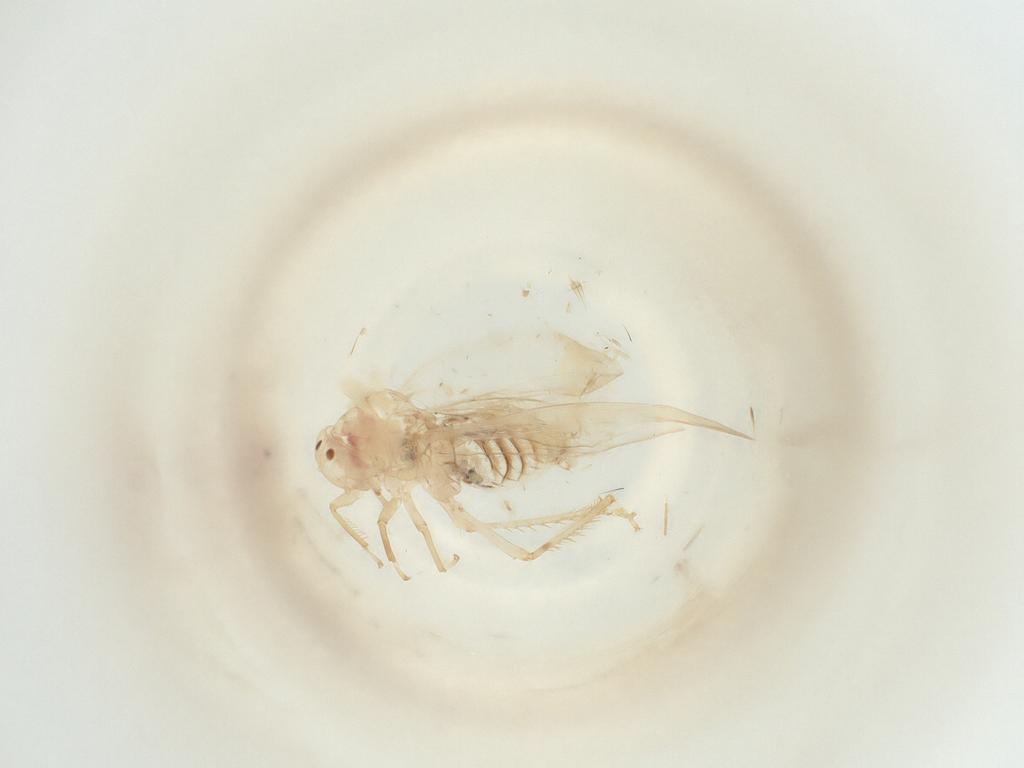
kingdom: Animalia
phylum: Arthropoda
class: Insecta
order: Hemiptera
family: Cicadellidae
